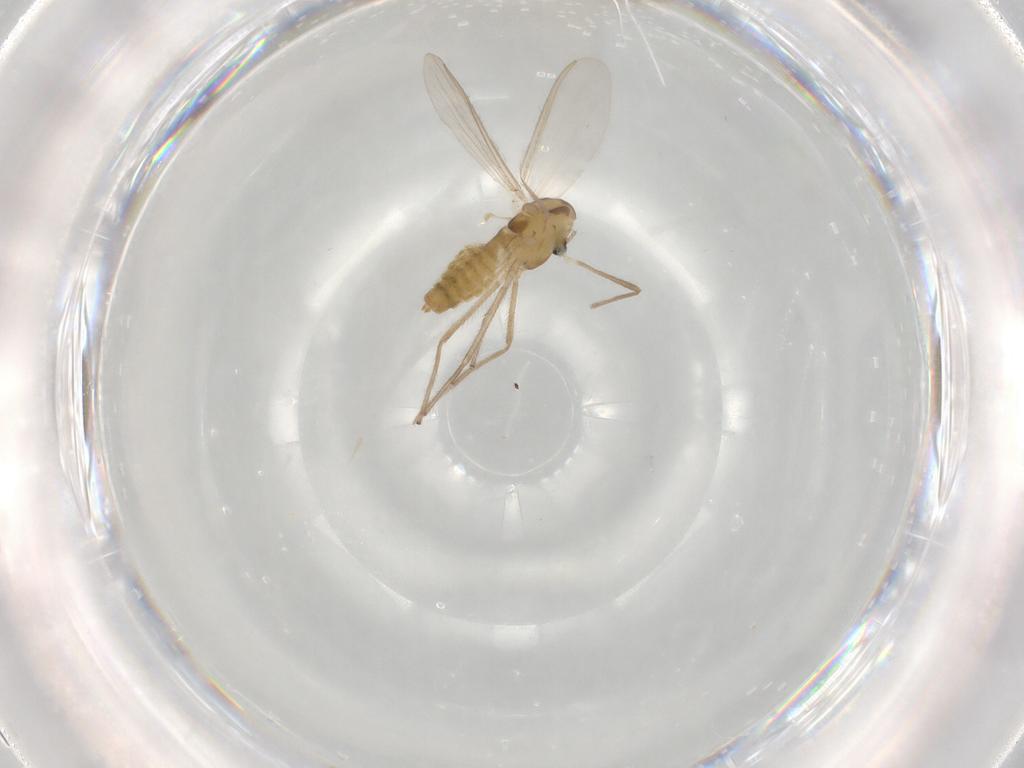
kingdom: Animalia
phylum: Arthropoda
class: Insecta
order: Diptera
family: Chironomidae
